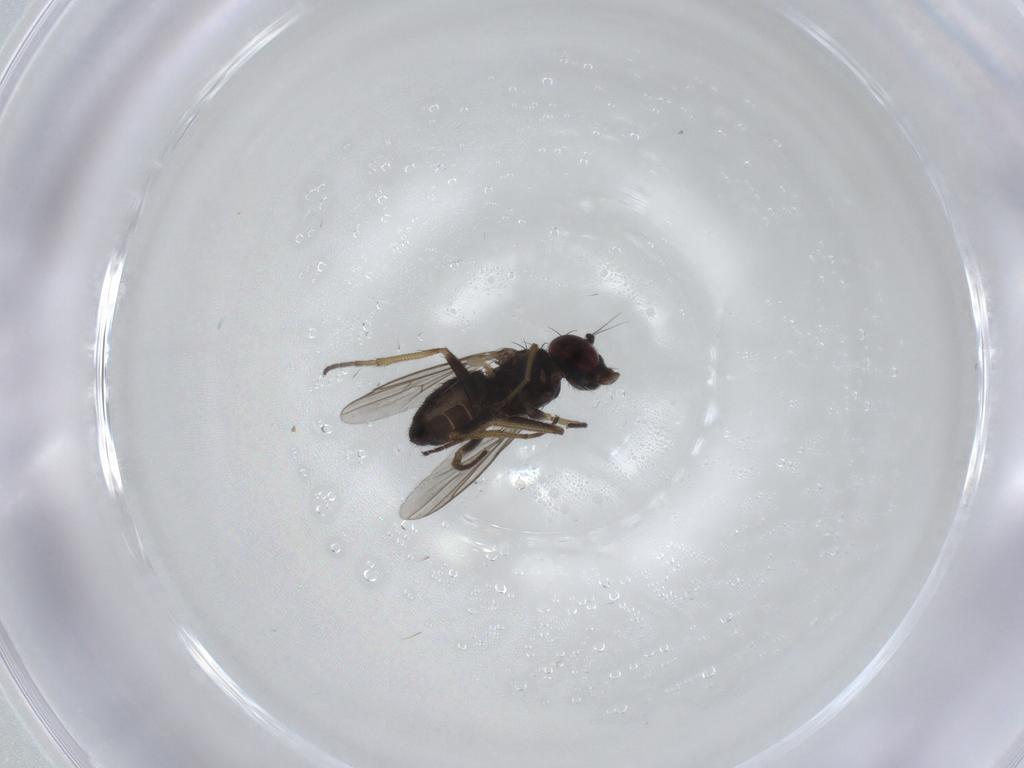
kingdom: Animalia
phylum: Arthropoda
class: Insecta
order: Diptera
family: Dolichopodidae
